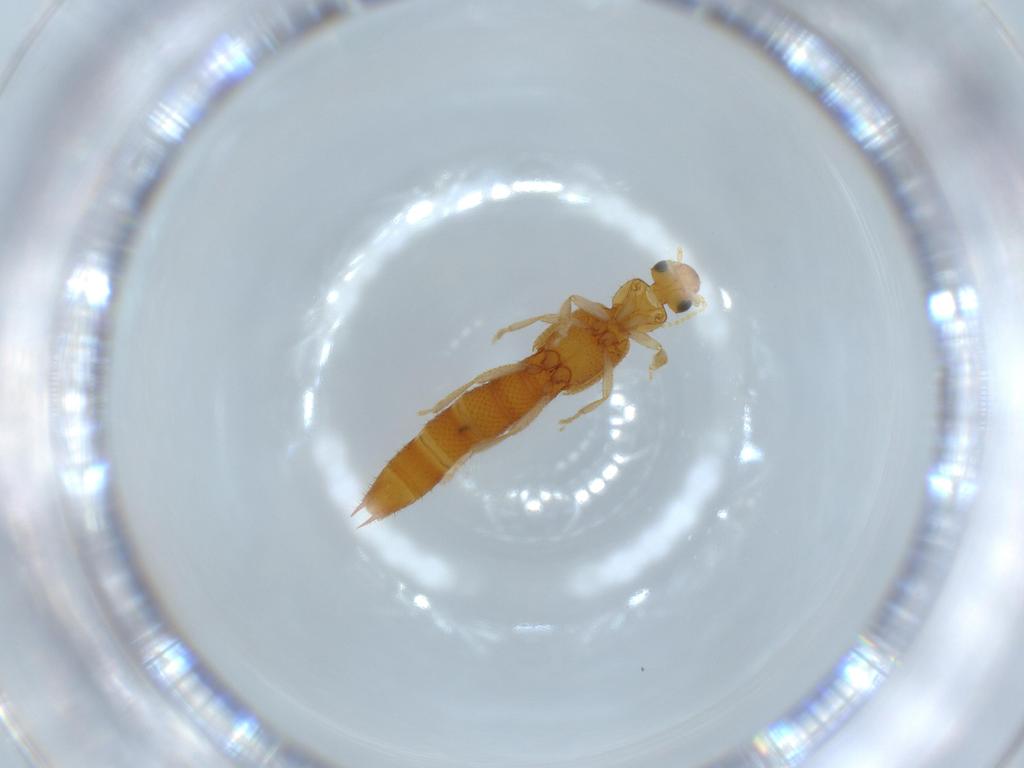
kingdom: Animalia
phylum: Arthropoda
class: Insecta
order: Coleoptera
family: Staphylinidae
